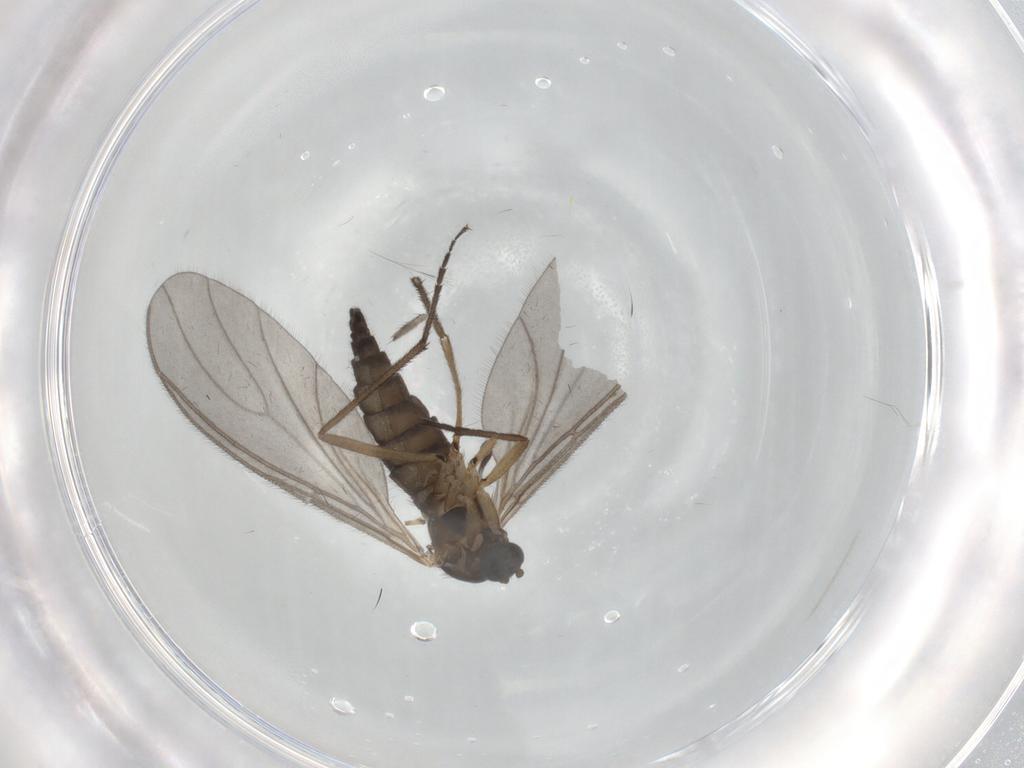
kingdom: Animalia
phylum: Arthropoda
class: Insecta
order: Diptera
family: Sciaridae
